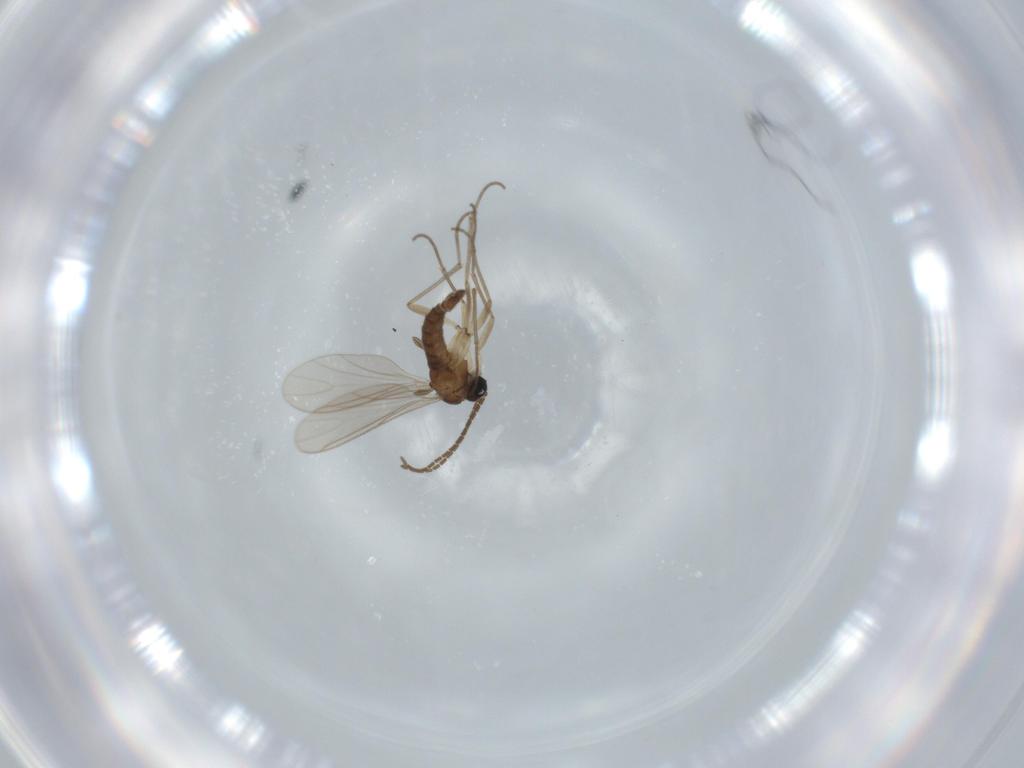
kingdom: Animalia
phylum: Arthropoda
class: Insecta
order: Diptera
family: Sciaridae
